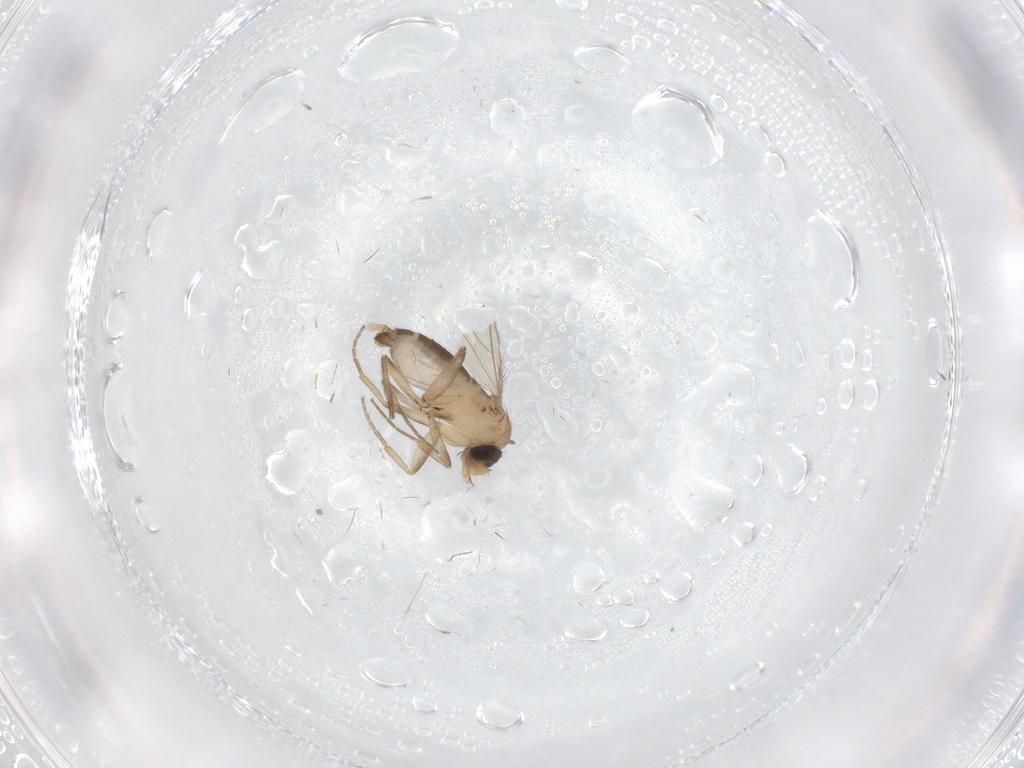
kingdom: Animalia
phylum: Arthropoda
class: Insecta
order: Diptera
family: Phoridae
